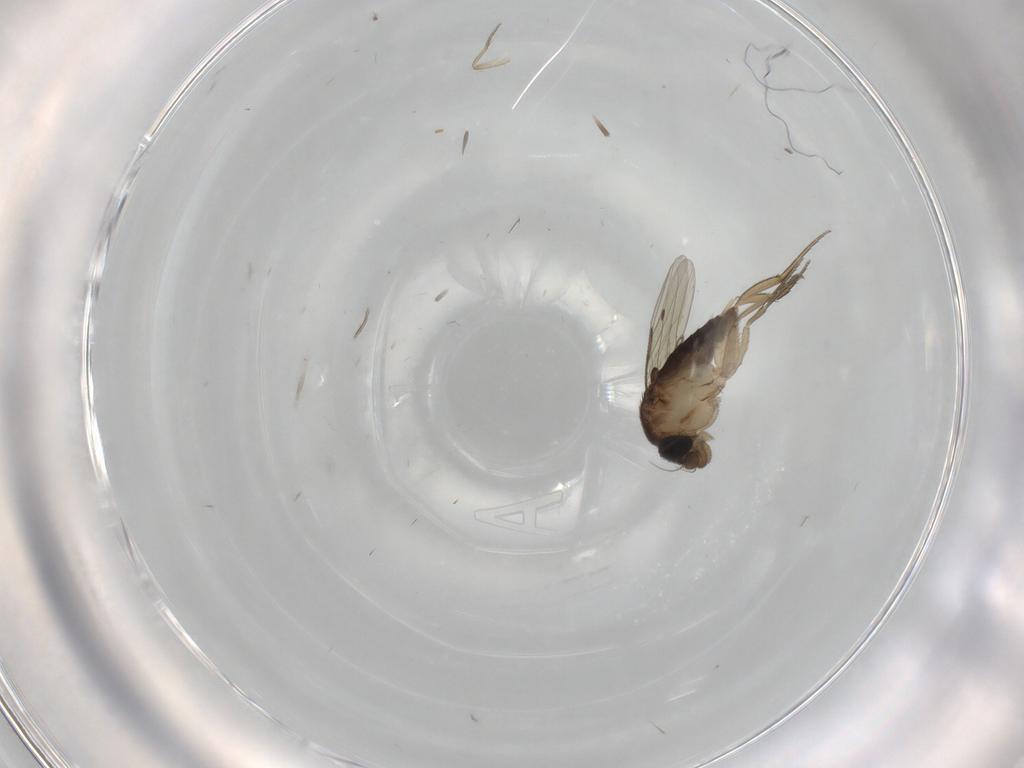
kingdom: Animalia
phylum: Arthropoda
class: Insecta
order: Diptera
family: Phoridae
